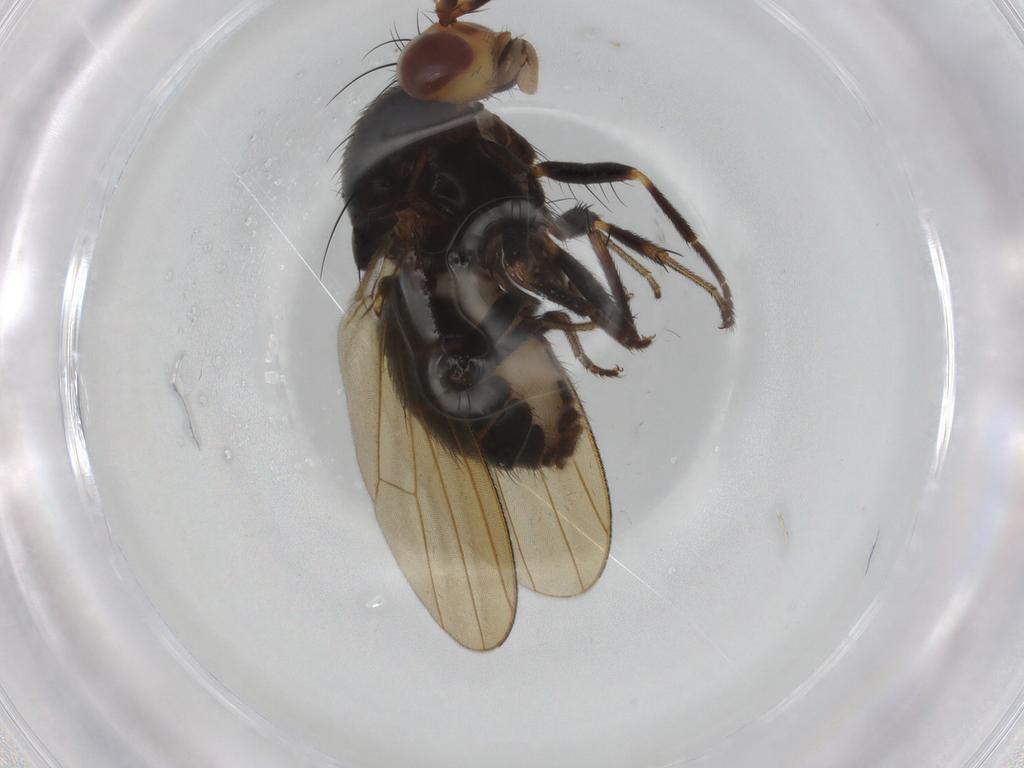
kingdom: Animalia
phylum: Arthropoda
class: Insecta
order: Diptera
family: Lauxaniidae
